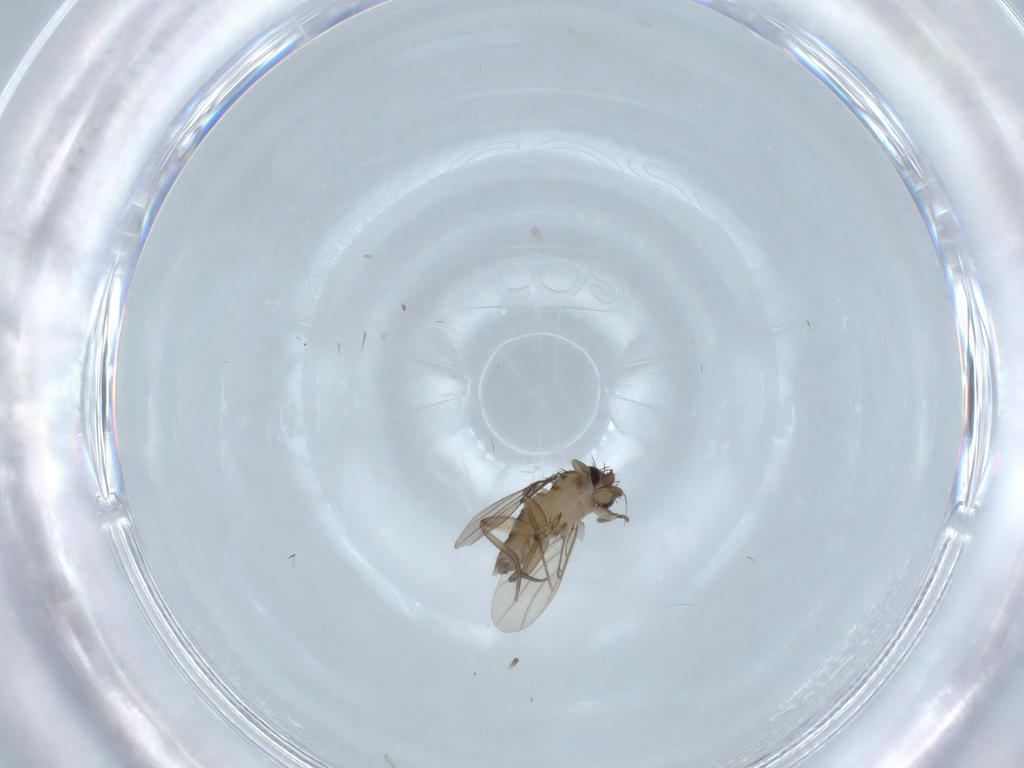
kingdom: Animalia
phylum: Arthropoda
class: Insecta
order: Diptera
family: Phoridae
